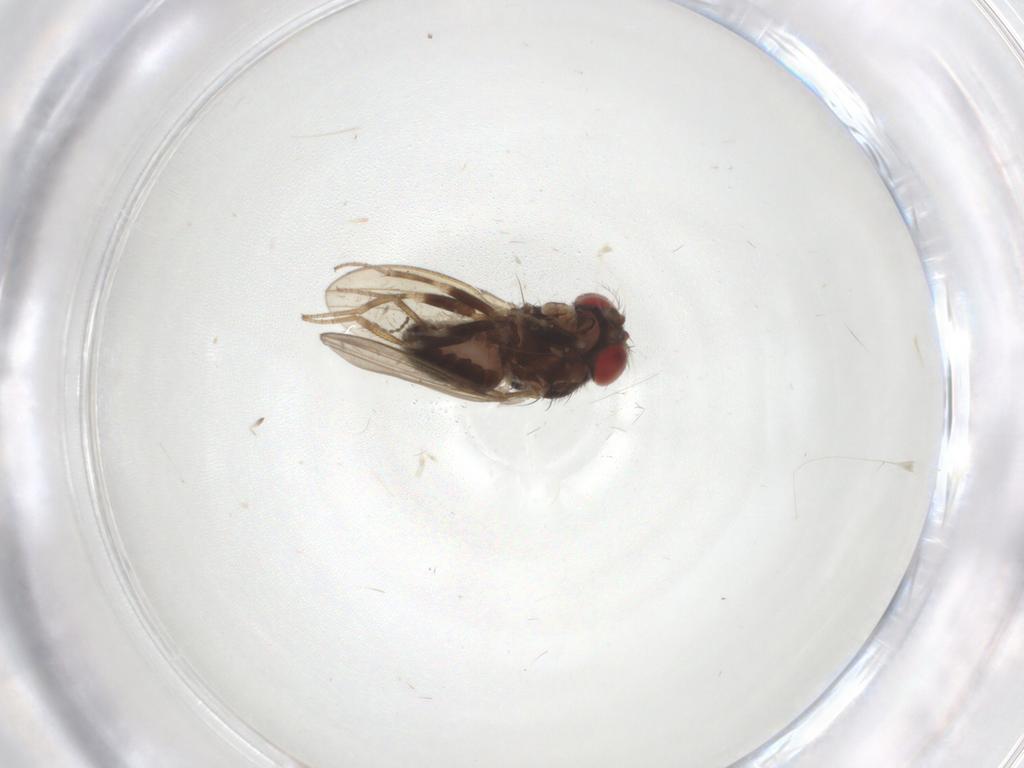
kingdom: Animalia
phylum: Arthropoda
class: Insecta
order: Diptera
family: Drosophilidae
